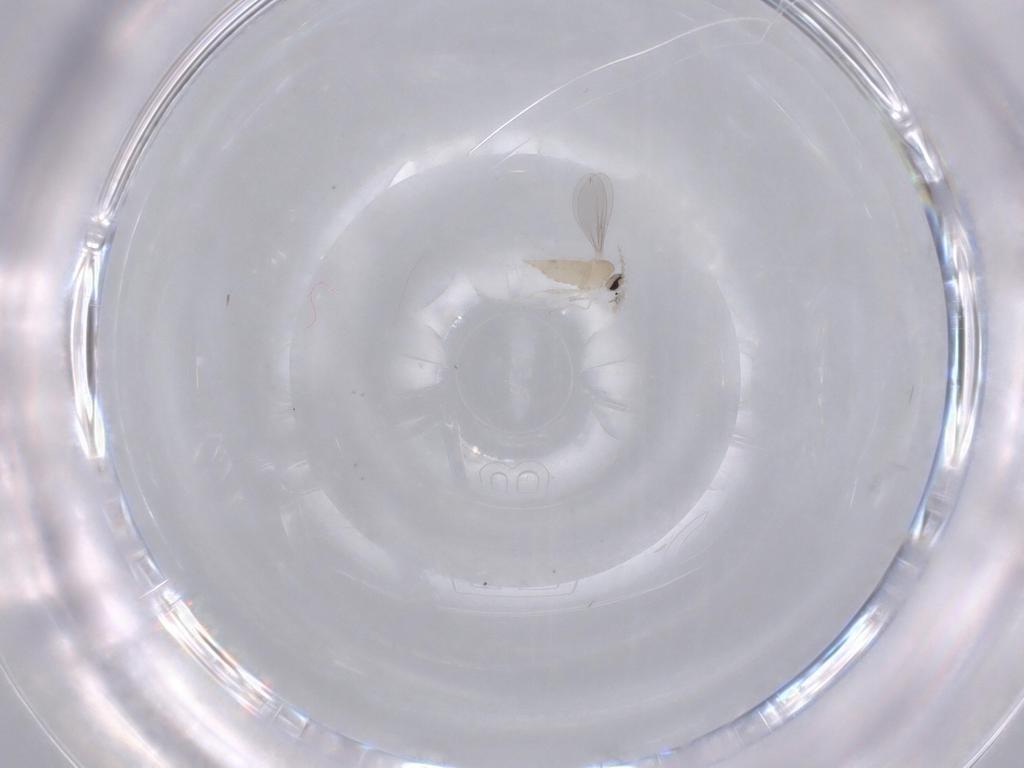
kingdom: Animalia
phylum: Arthropoda
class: Insecta
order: Diptera
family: Cecidomyiidae
